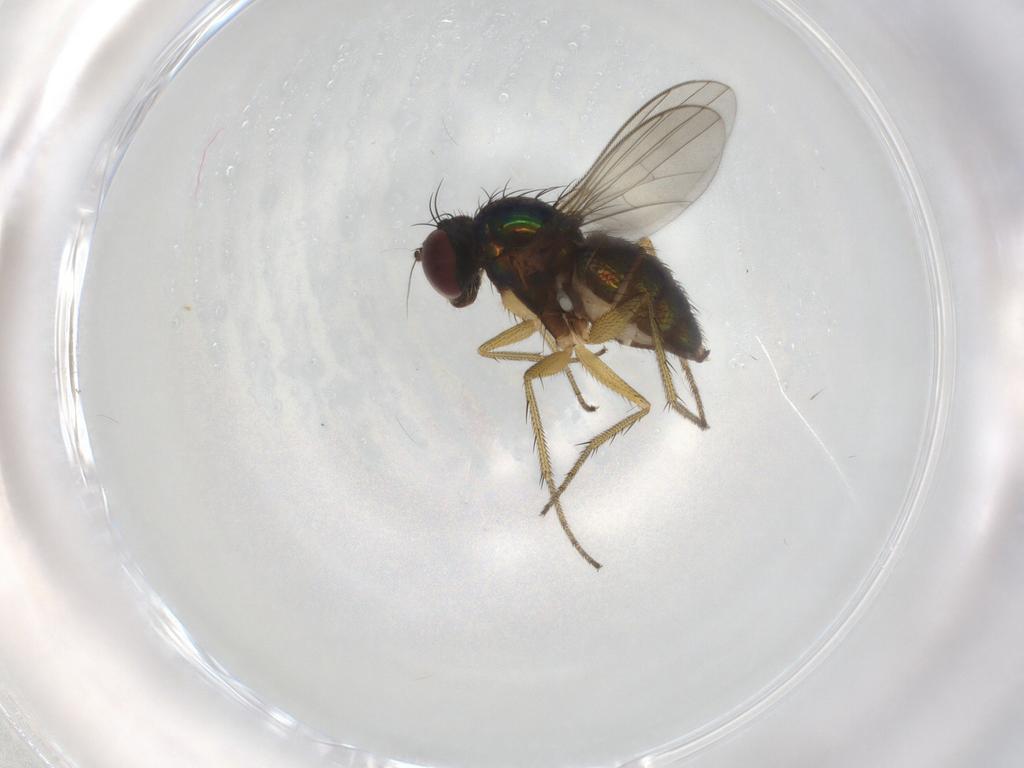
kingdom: Animalia
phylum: Arthropoda
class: Insecta
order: Diptera
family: Dolichopodidae
